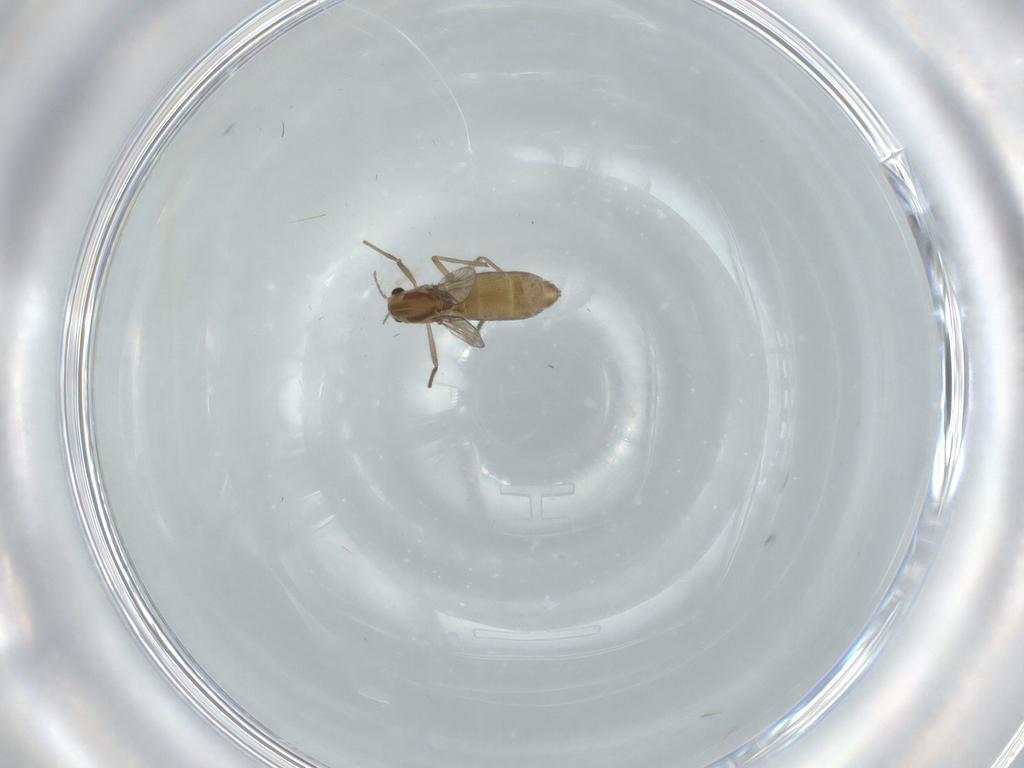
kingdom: Animalia
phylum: Arthropoda
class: Insecta
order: Diptera
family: Chironomidae
